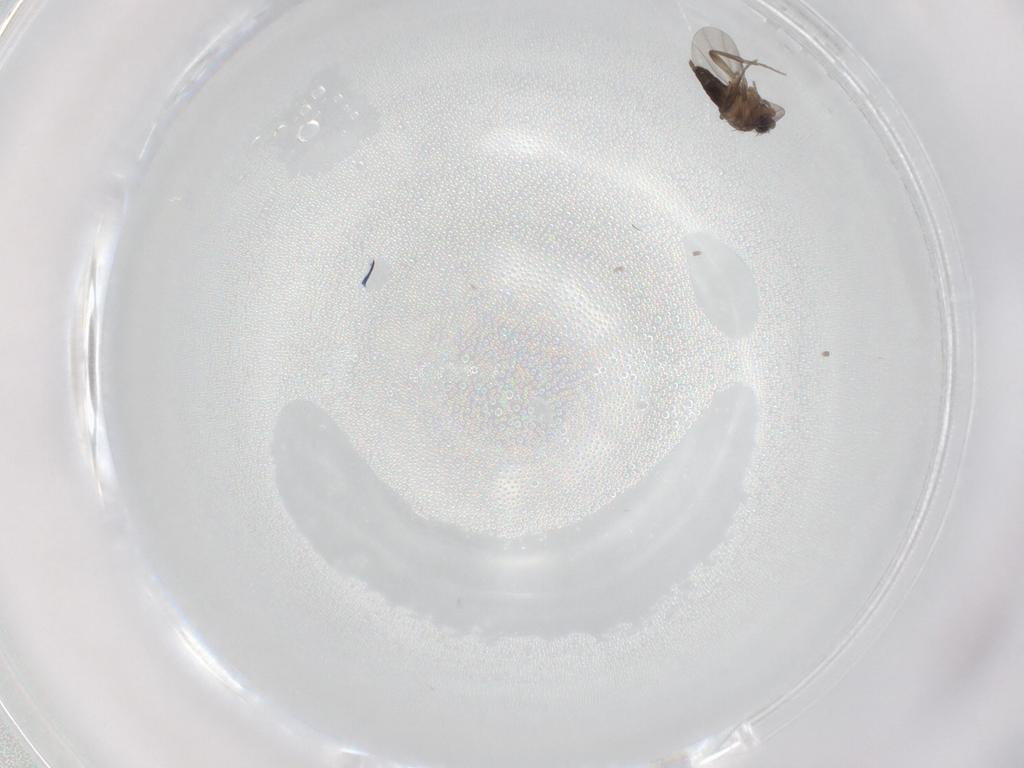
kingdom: Animalia
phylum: Arthropoda
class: Insecta
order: Diptera
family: Phoridae
